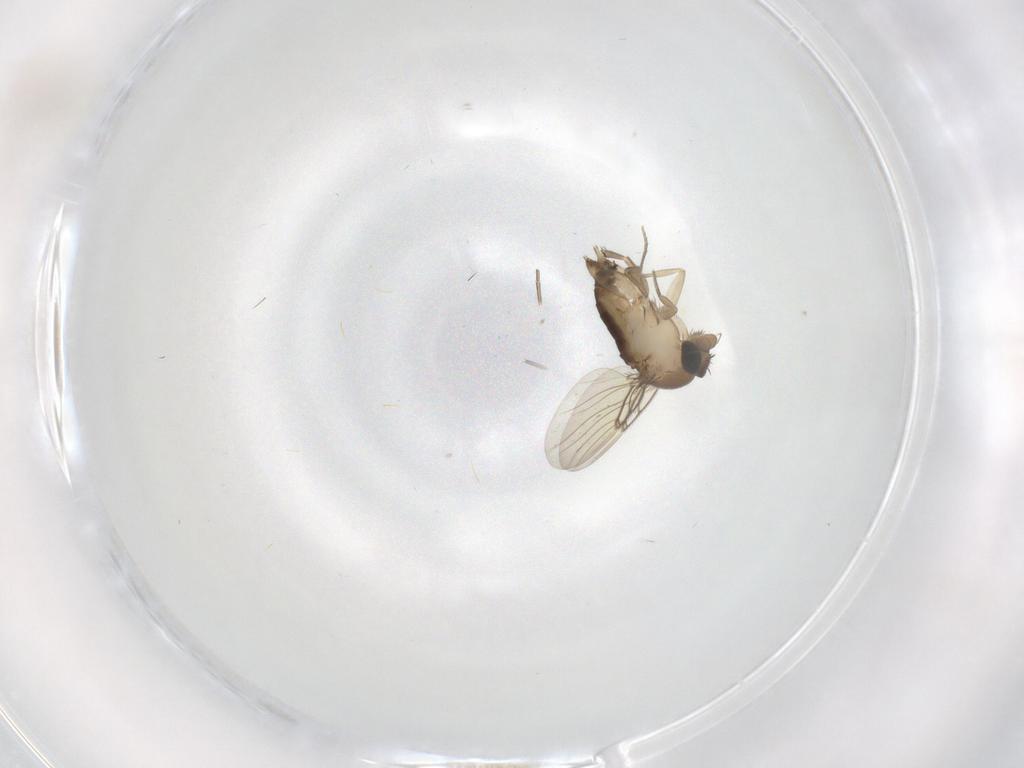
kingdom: Animalia
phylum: Arthropoda
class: Insecta
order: Diptera
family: Phoridae
